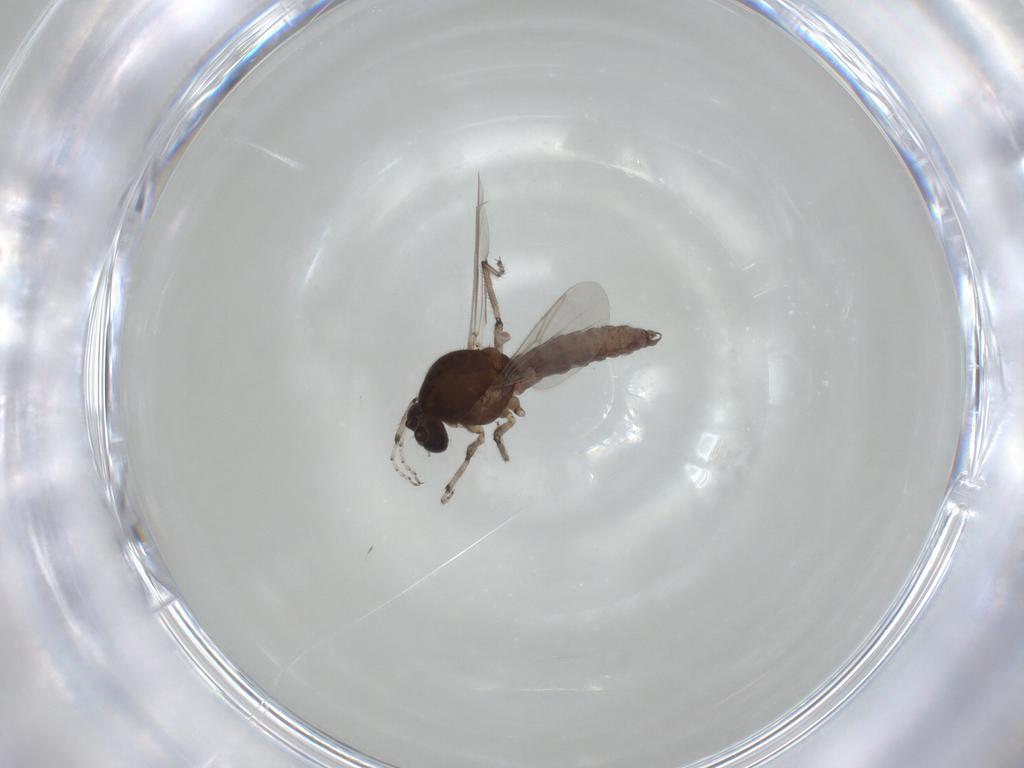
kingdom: Animalia
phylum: Arthropoda
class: Insecta
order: Diptera
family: Ceratopogonidae
